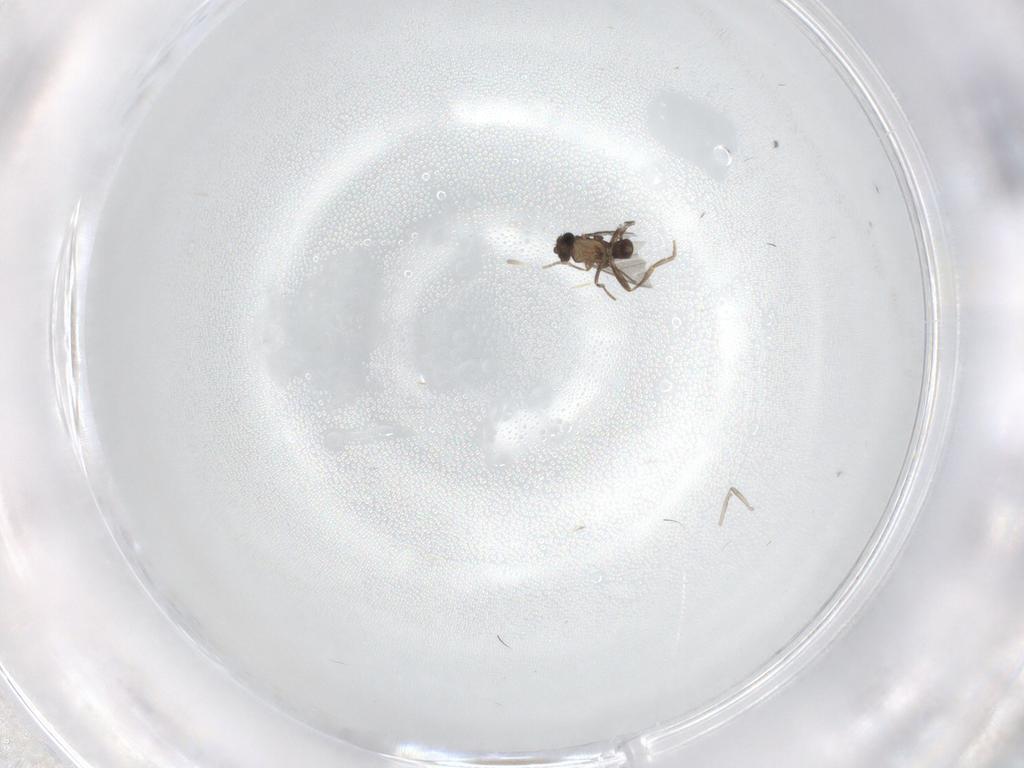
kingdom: Animalia
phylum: Arthropoda
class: Insecta
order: Diptera
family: Cecidomyiidae
